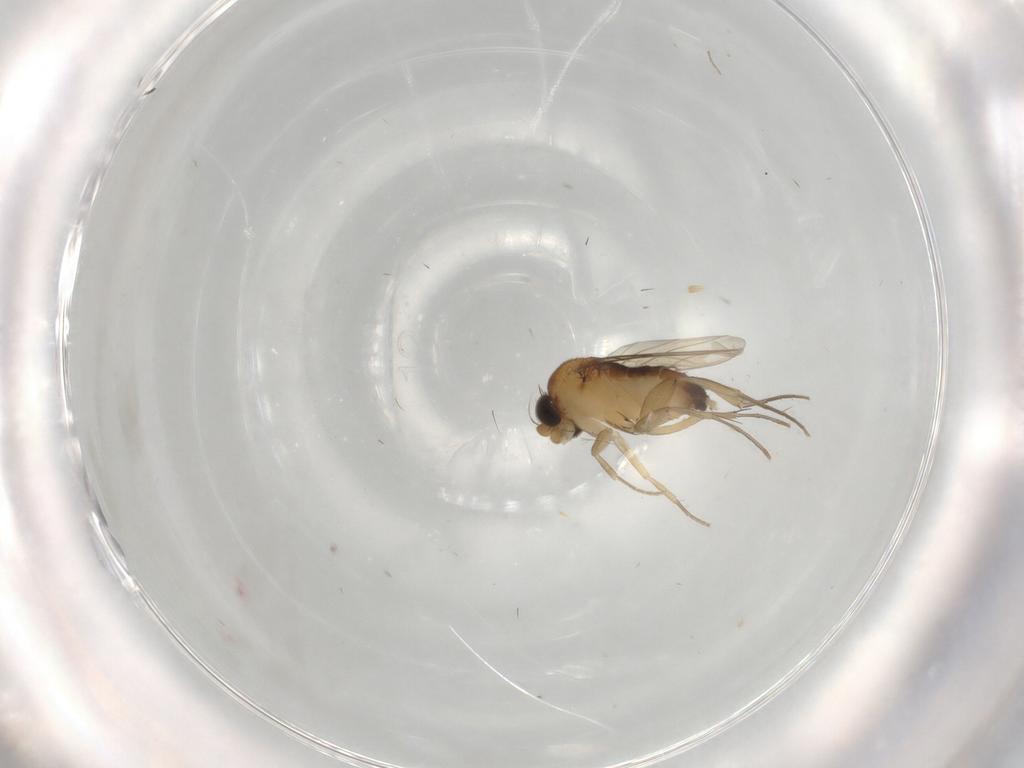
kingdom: Animalia
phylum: Arthropoda
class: Insecta
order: Diptera
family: Phoridae
